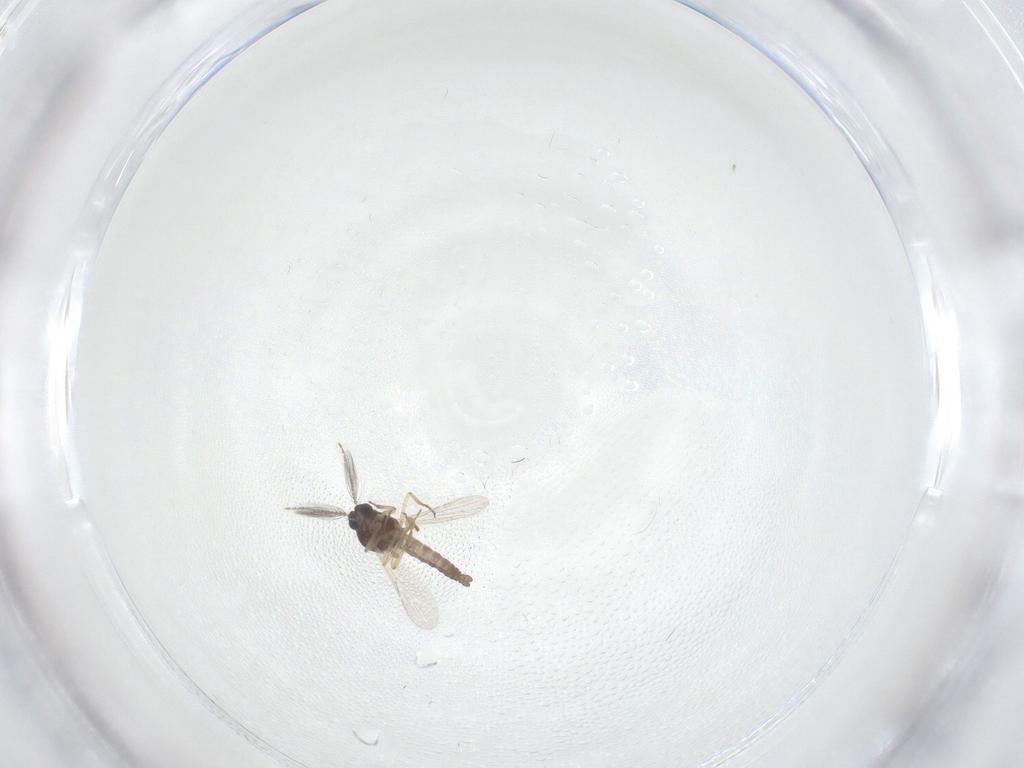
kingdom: Animalia
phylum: Arthropoda
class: Insecta
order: Diptera
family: Ceratopogonidae
